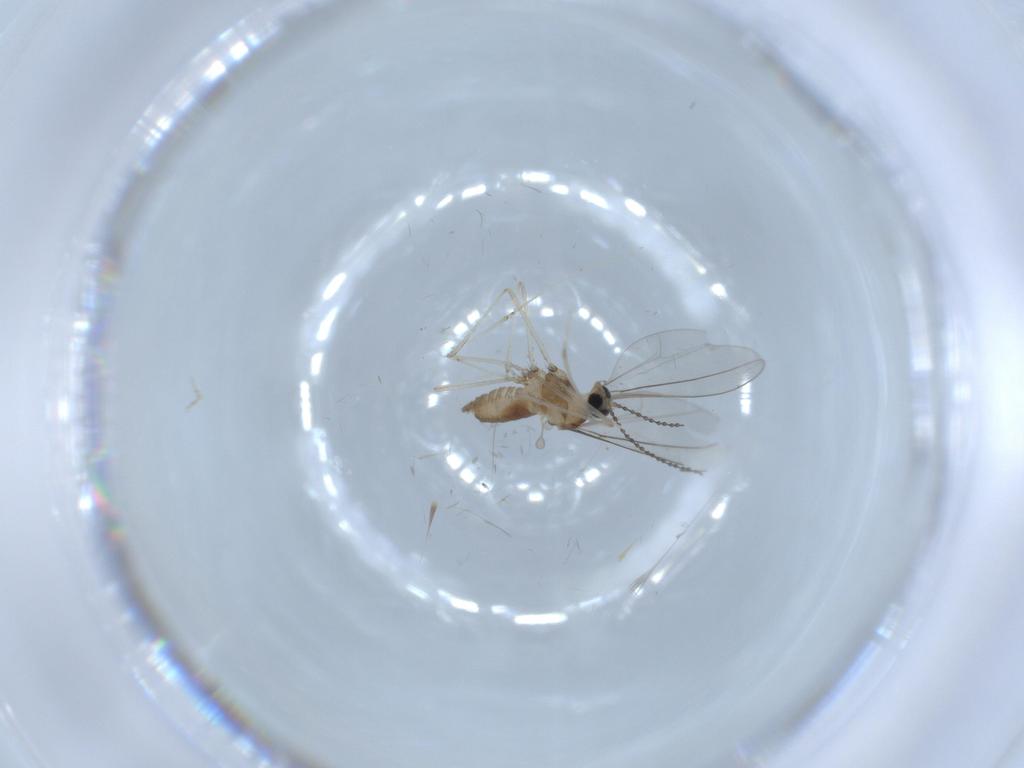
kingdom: Animalia
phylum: Arthropoda
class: Insecta
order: Diptera
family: Cecidomyiidae
